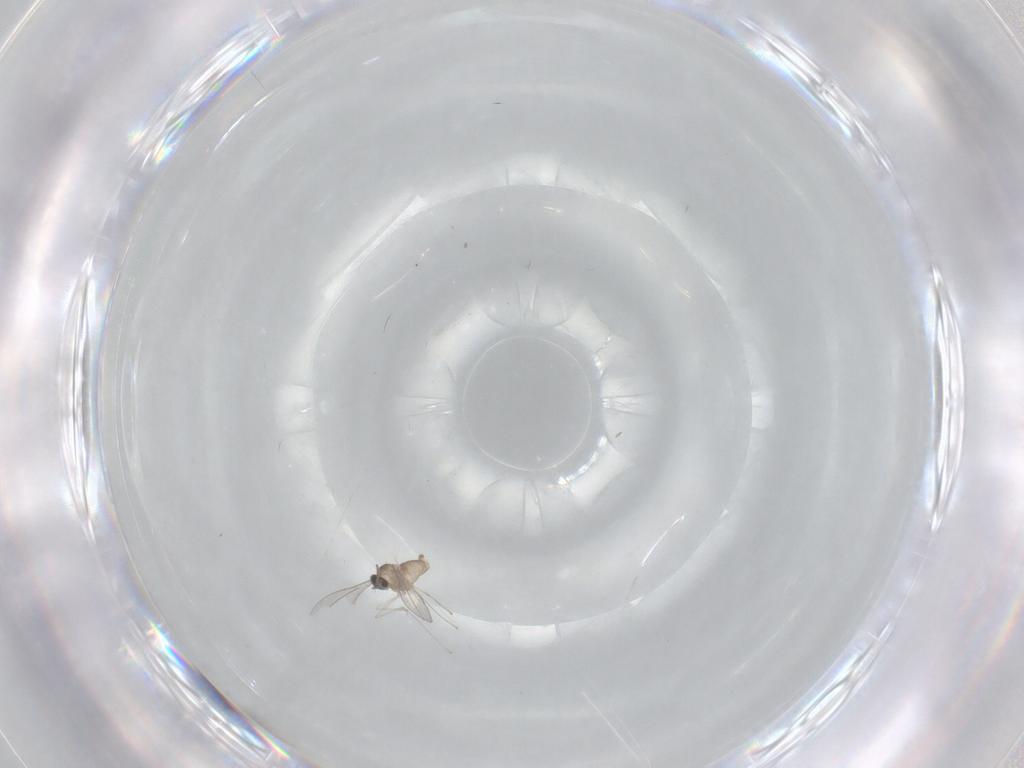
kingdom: Animalia
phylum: Arthropoda
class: Insecta
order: Diptera
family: Cecidomyiidae
